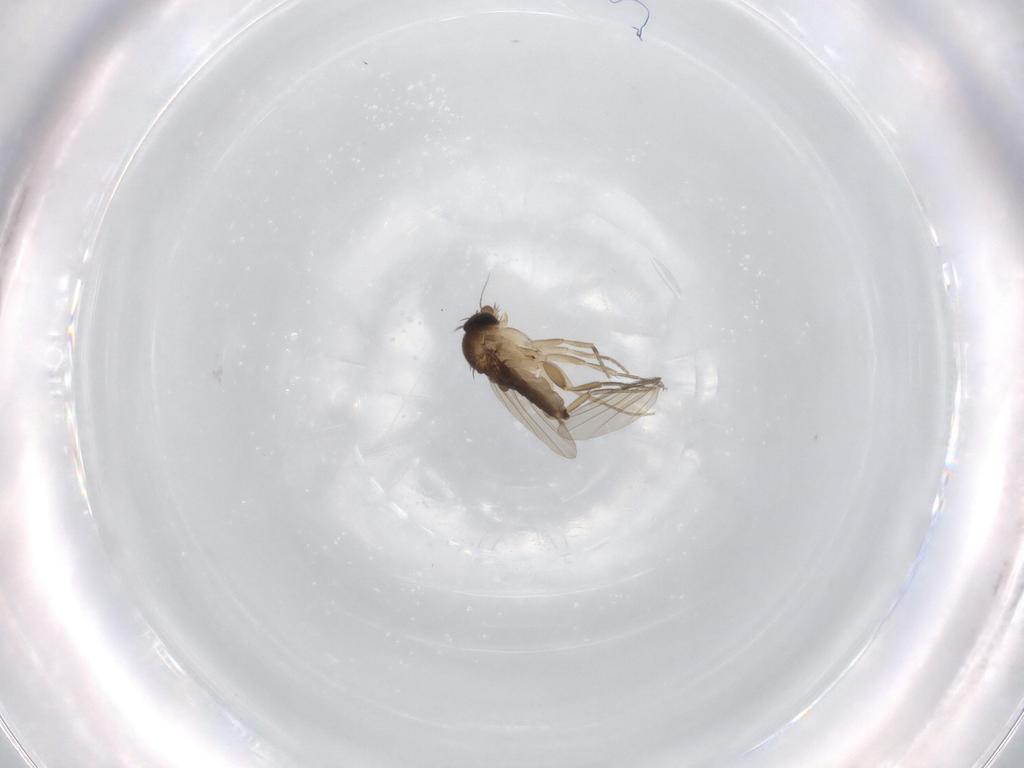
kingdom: Animalia
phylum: Arthropoda
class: Insecta
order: Diptera
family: Phoridae
